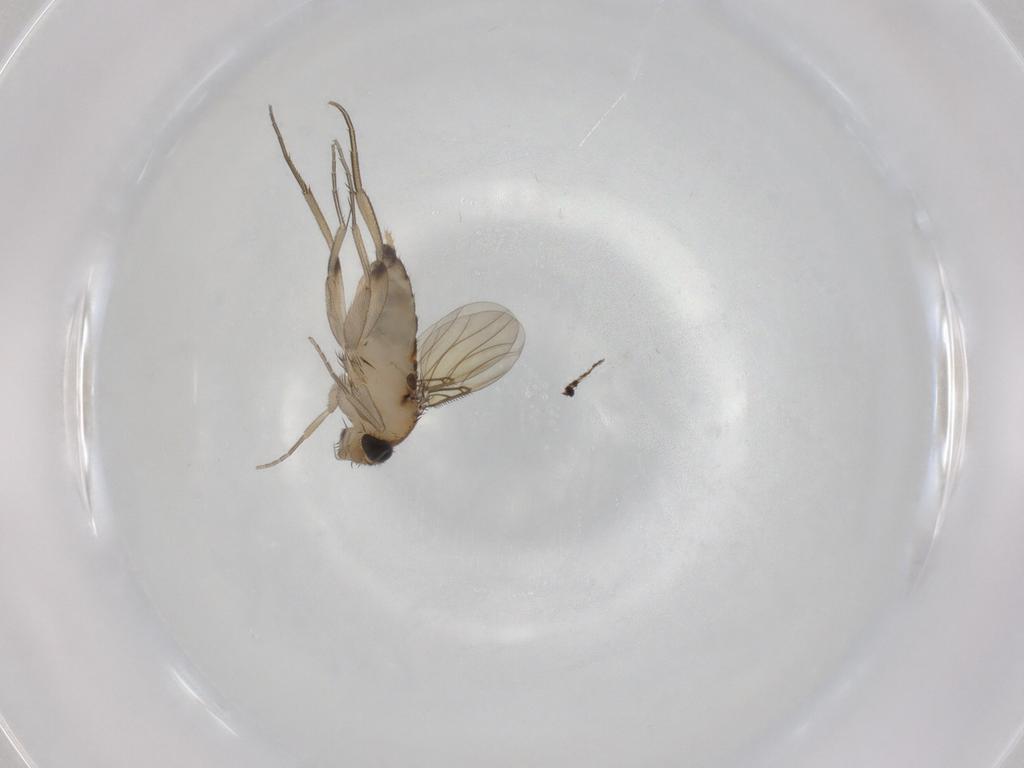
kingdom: Animalia
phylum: Arthropoda
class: Insecta
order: Diptera
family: Phoridae
